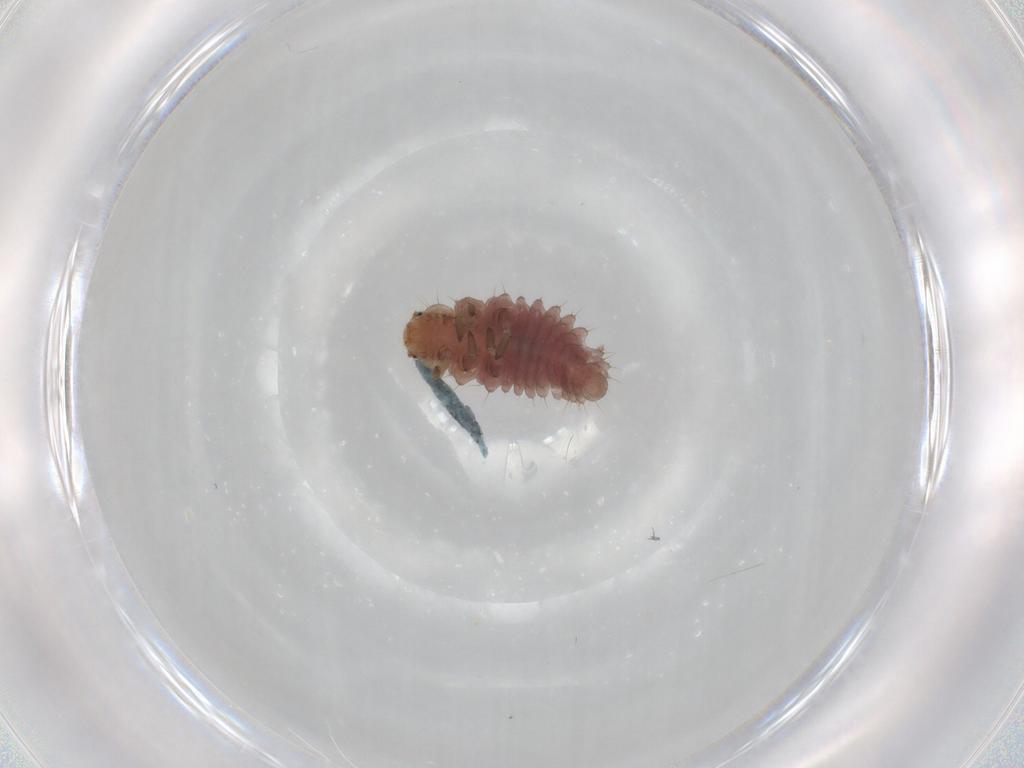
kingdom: Animalia
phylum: Arthropoda
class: Insecta
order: Coleoptera
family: Coccinellidae
